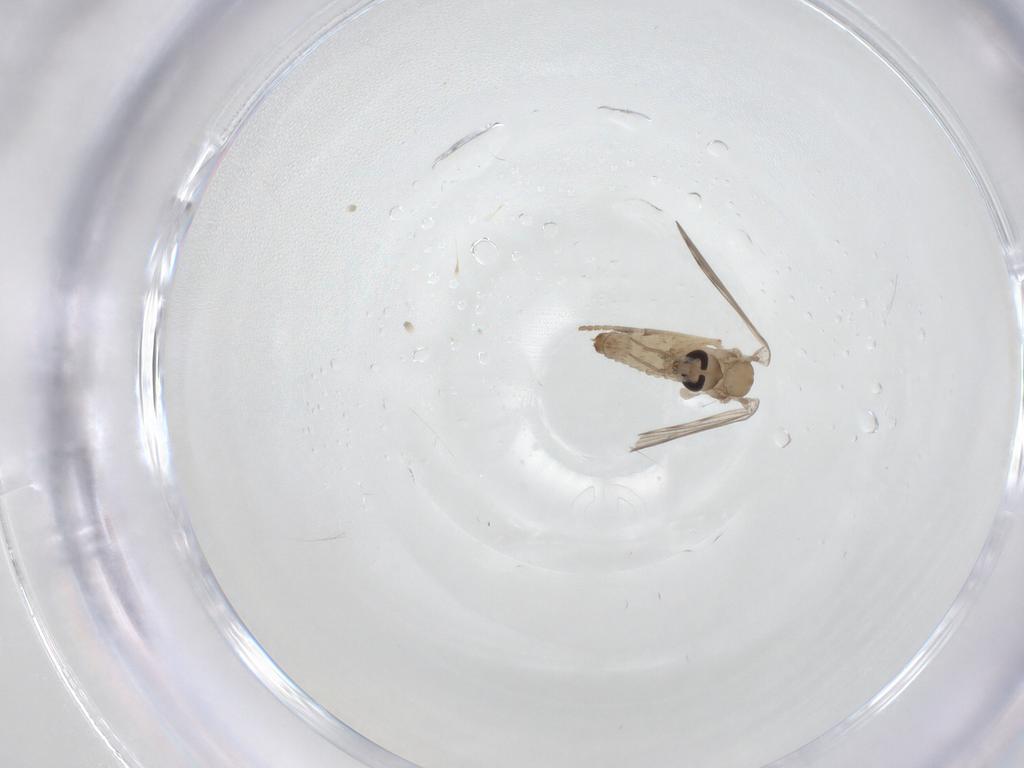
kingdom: Animalia
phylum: Arthropoda
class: Insecta
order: Diptera
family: Psychodidae
